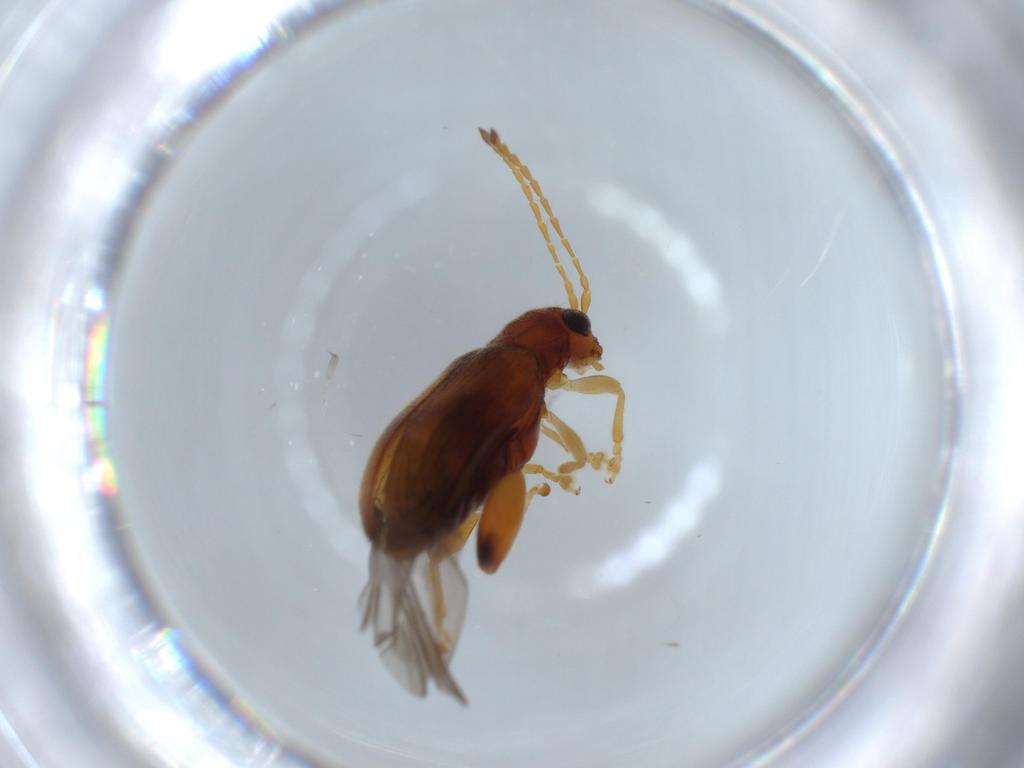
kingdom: Animalia
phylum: Arthropoda
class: Insecta
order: Coleoptera
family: Chrysomelidae
